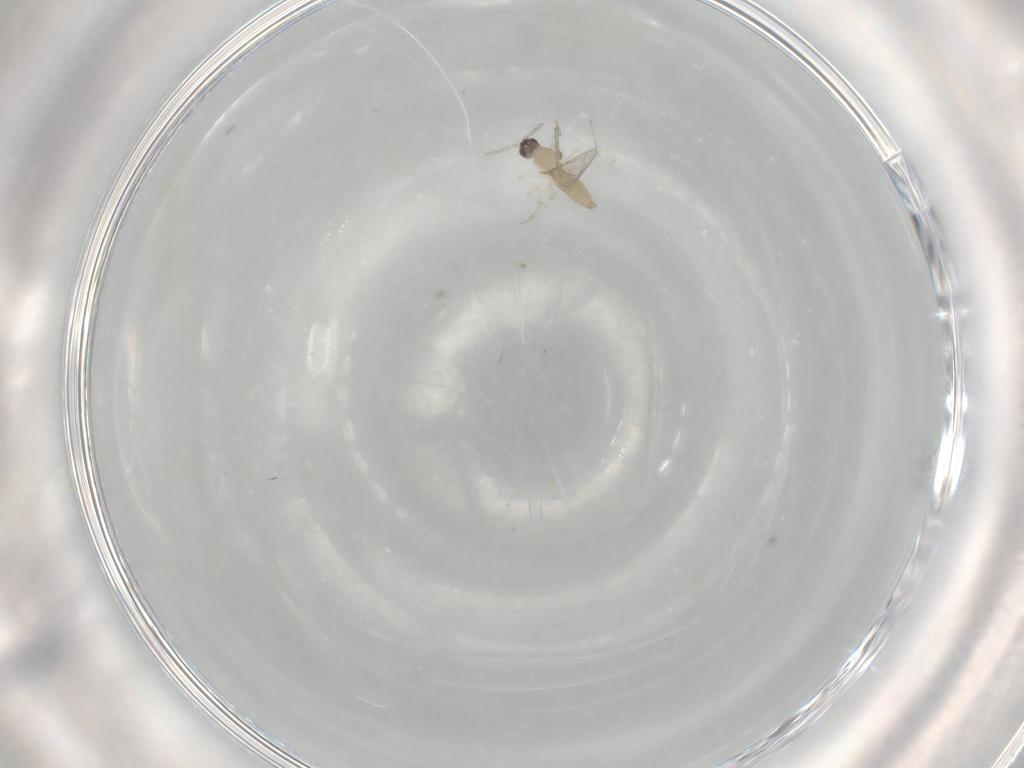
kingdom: Animalia
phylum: Arthropoda
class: Insecta
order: Diptera
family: Cecidomyiidae
